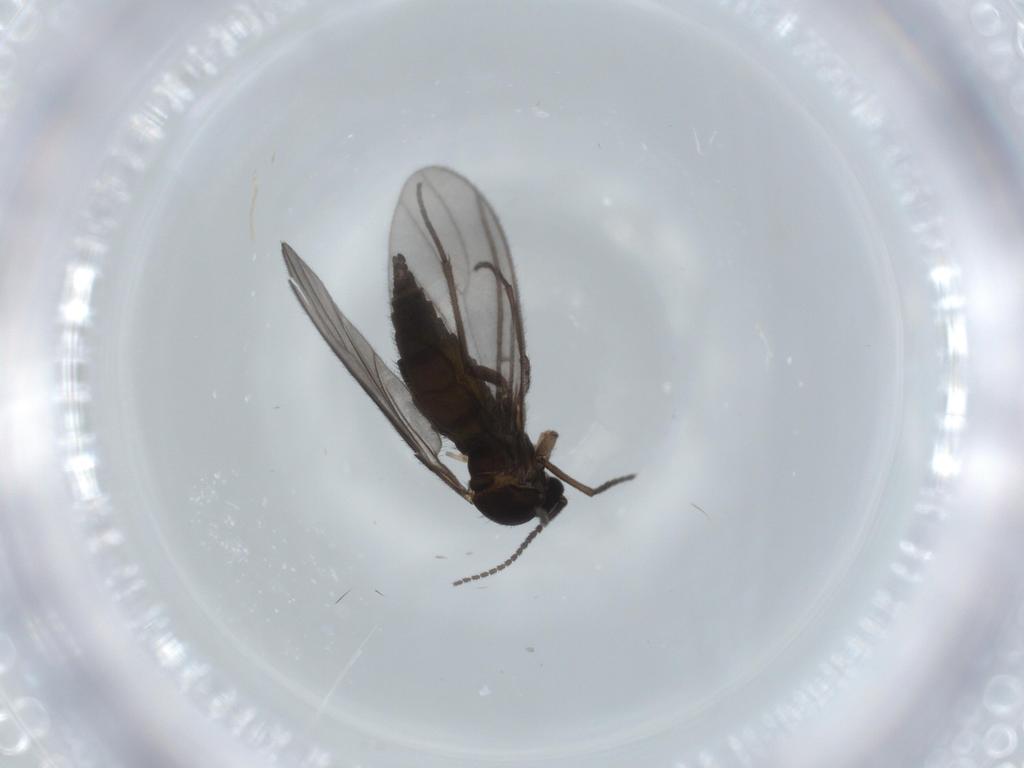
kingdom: Animalia
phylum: Arthropoda
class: Insecta
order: Diptera
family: Sciaridae
